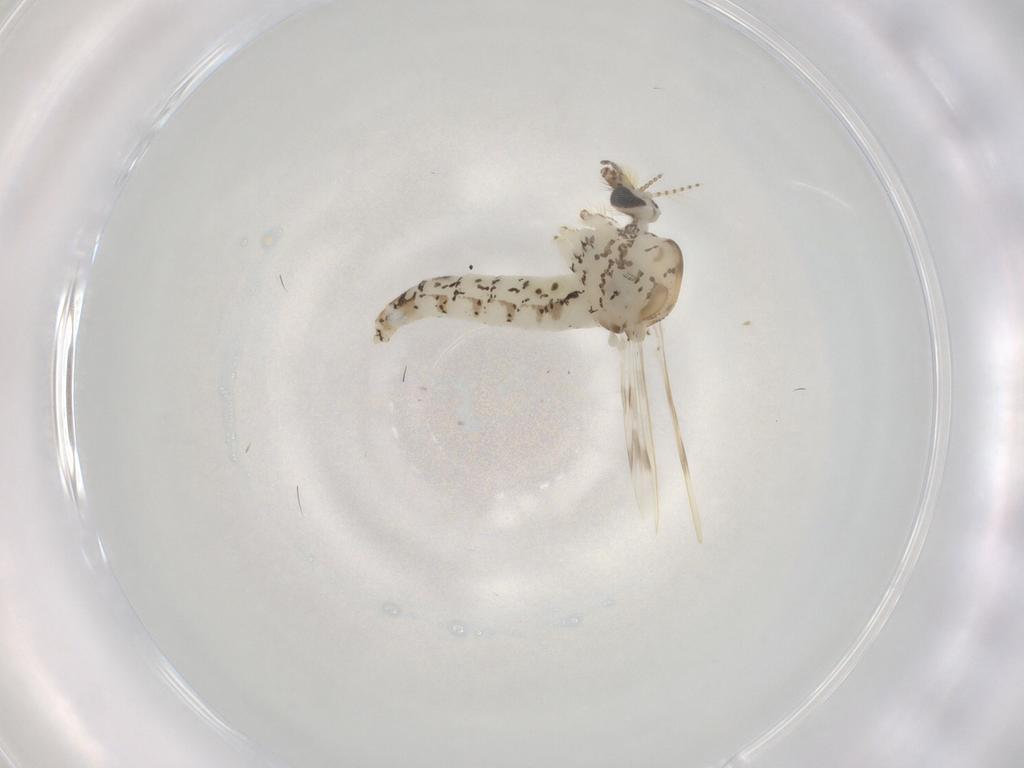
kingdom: Animalia
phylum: Arthropoda
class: Insecta
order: Diptera
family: Chaoboridae
